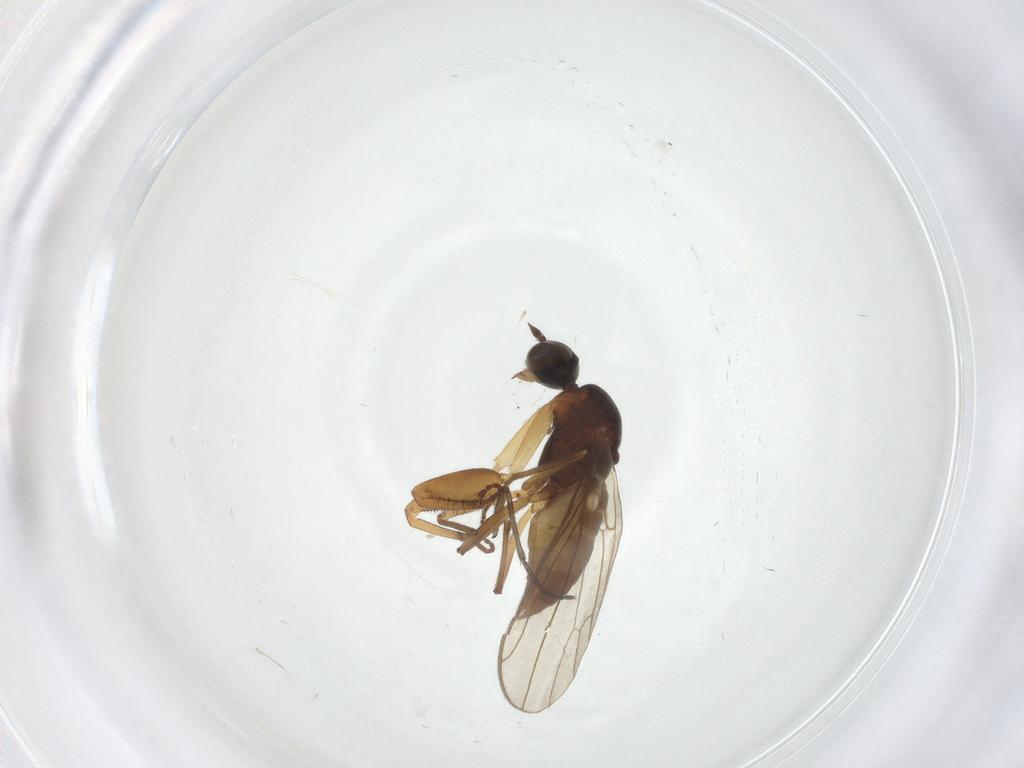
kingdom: Animalia
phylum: Arthropoda
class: Insecta
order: Diptera
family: Empididae
